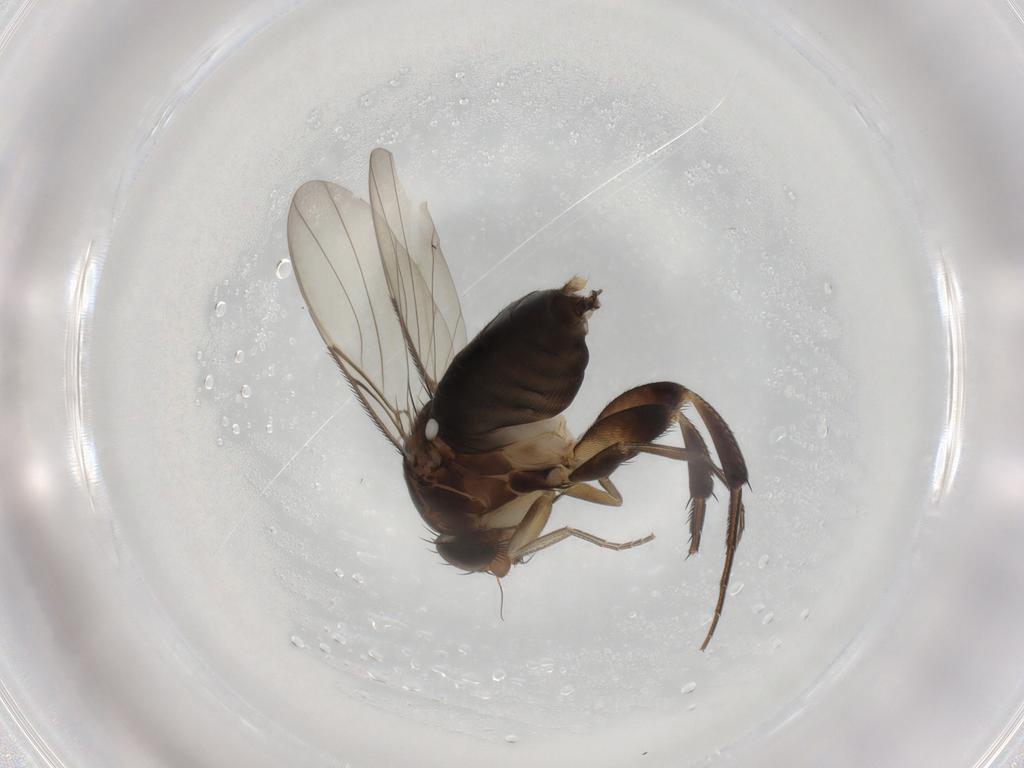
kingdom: Animalia
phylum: Arthropoda
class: Insecta
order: Diptera
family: Phoridae
